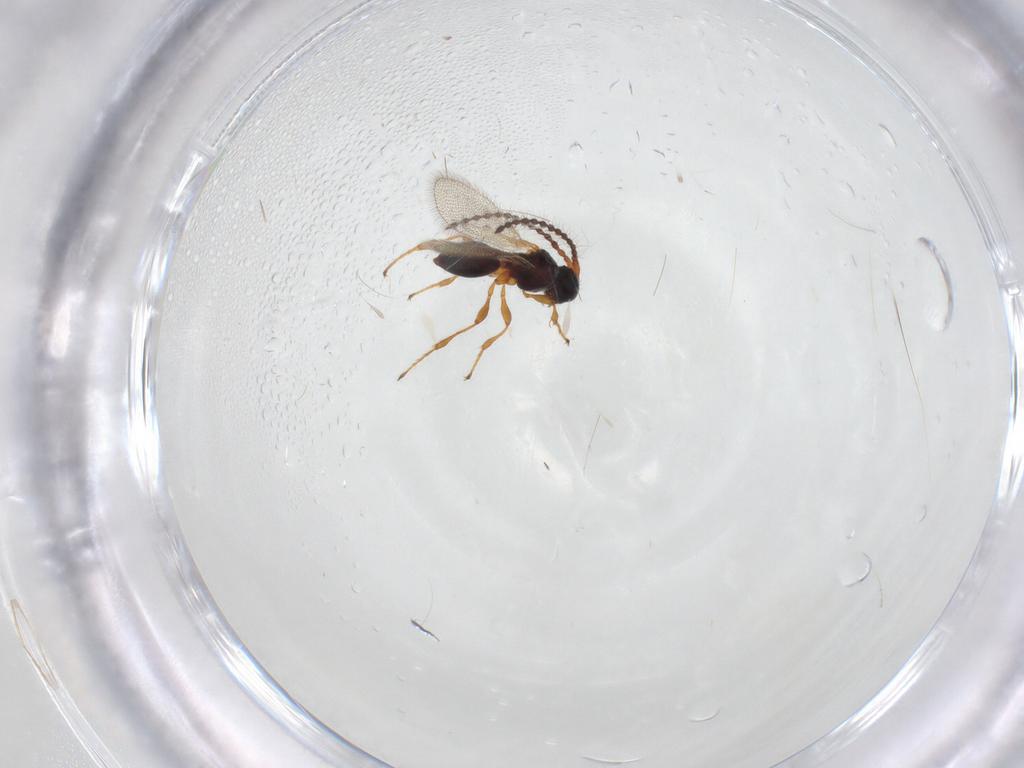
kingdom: Animalia
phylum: Arthropoda
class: Insecta
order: Hymenoptera
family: Diapriidae
